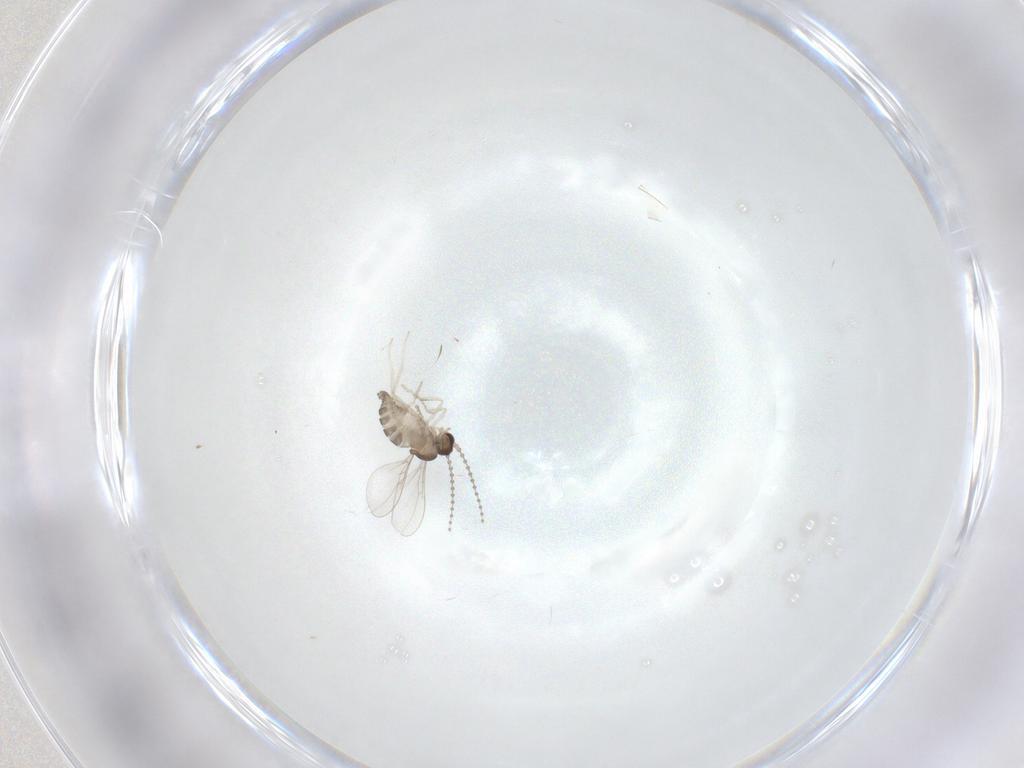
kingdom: Animalia
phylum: Arthropoda
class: Insecta
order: Diptera
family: Cecidomyiidae
